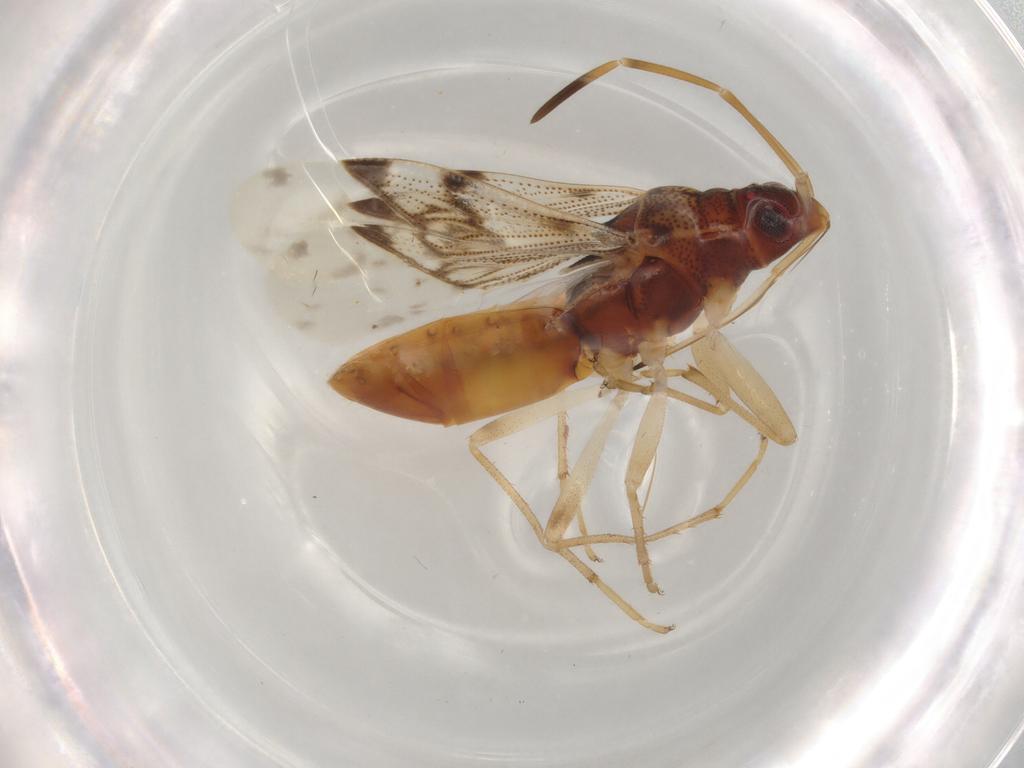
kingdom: Animalia
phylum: Arthropoda
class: Insecta
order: Hemiptera
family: Rhyparochromidae
